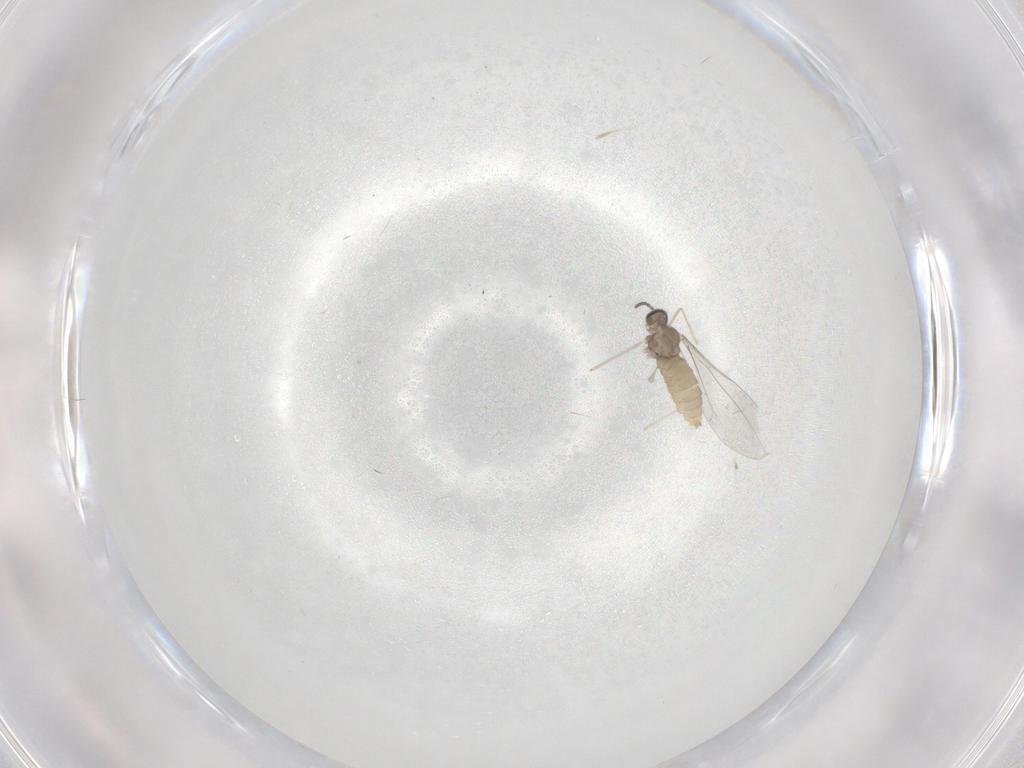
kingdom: Animalia
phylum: Arthropoda
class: Insecta
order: Diptera
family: Cecidomyiidae
